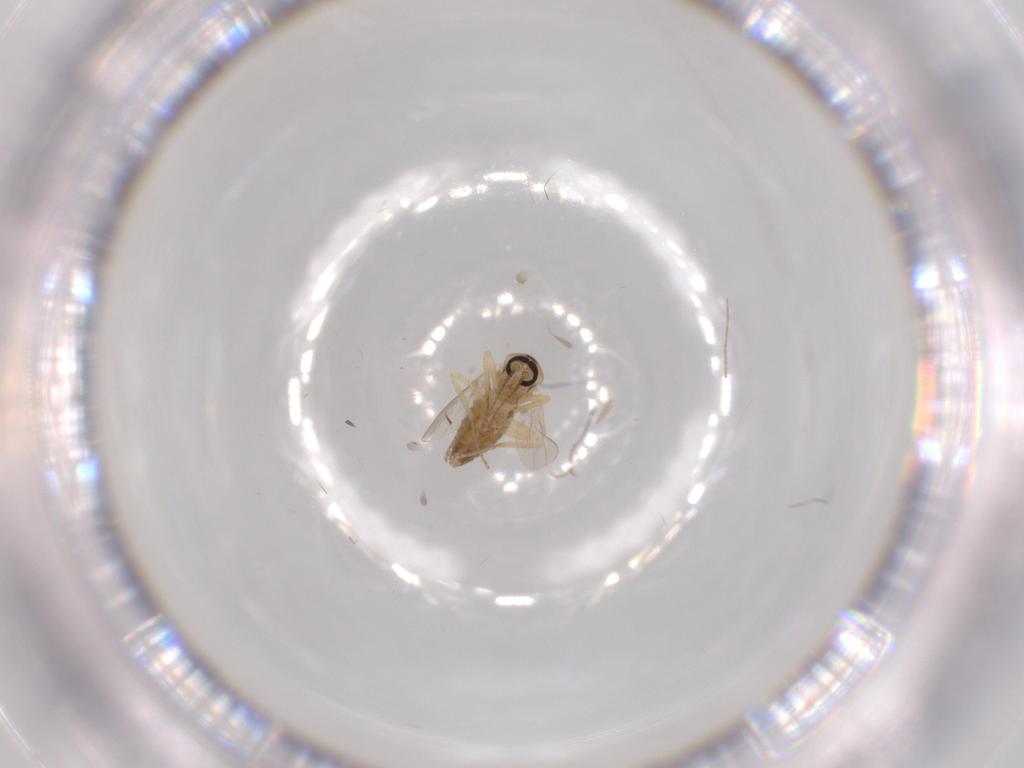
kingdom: Animalia
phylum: Arthropoda
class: Insecta
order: Diptera
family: Ceratopogonidae
